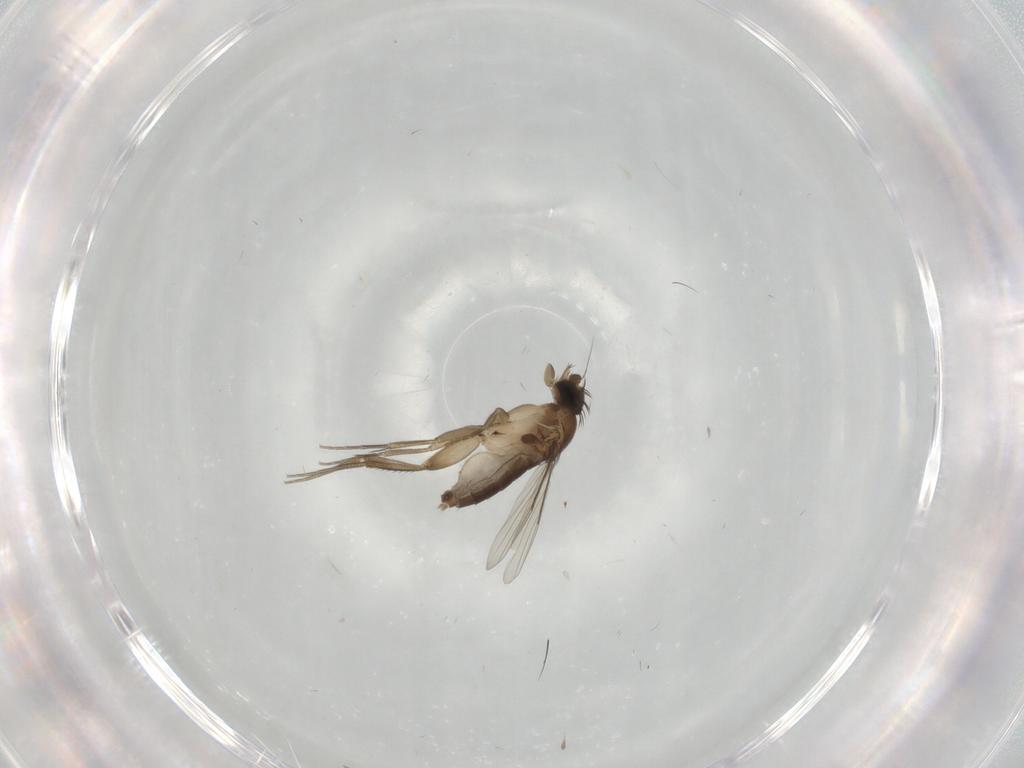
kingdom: Animalia
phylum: Arthropoda
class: Insecta
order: Diptera
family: Phoridae
